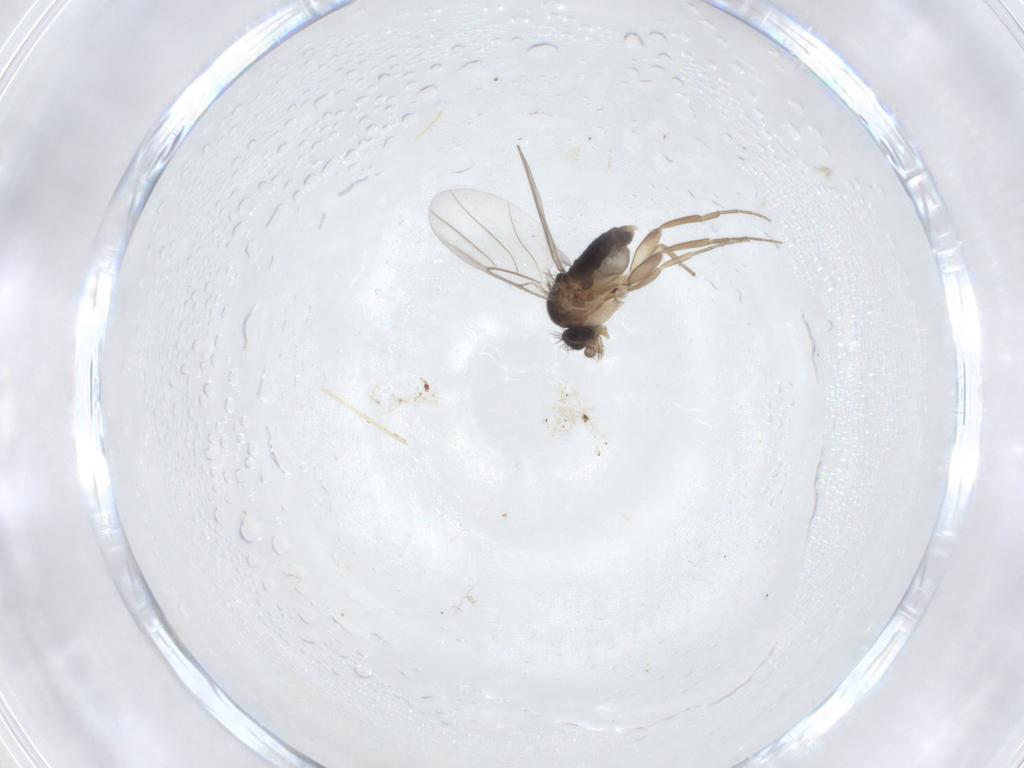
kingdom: Animalia
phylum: Arthropoda
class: Insecta
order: Diptera
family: Phoridae
